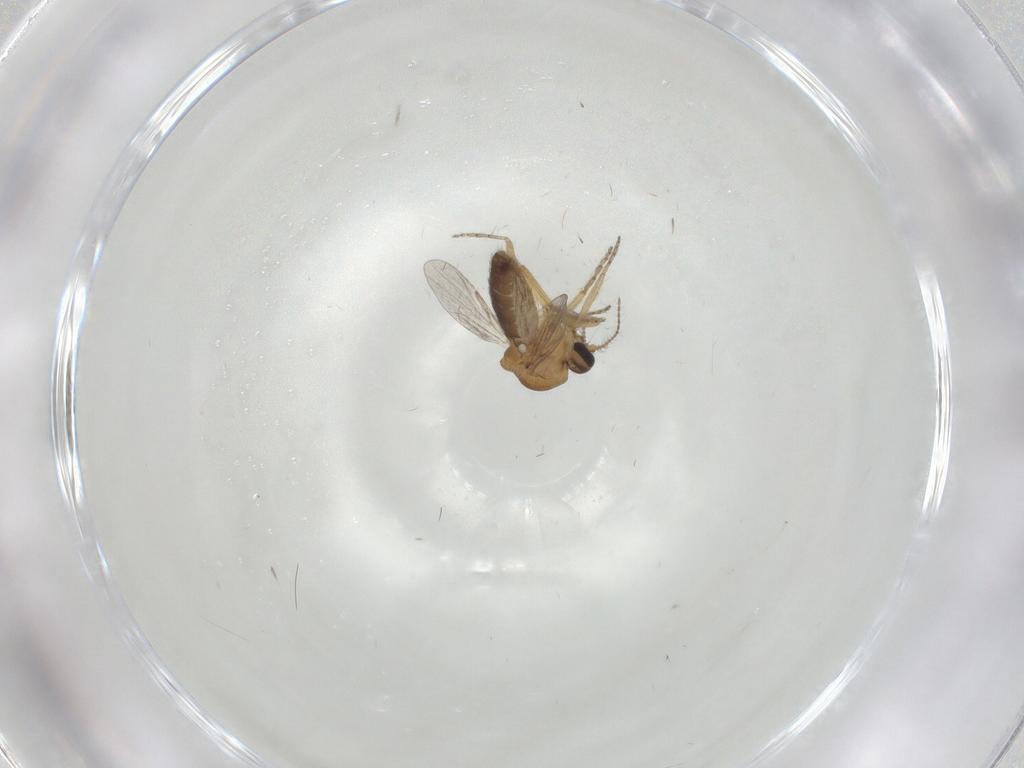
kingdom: Animalia
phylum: Arthropoda
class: Insecta
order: Diptera
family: Ceratopogonidae
